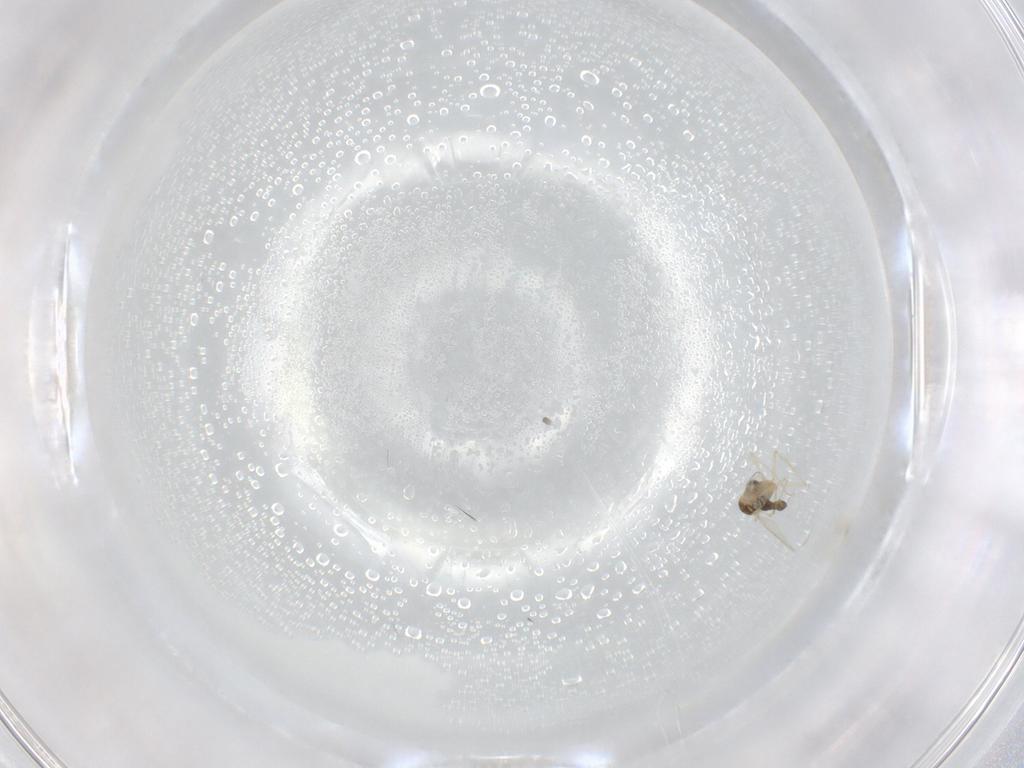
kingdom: Animalia
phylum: Arthropoda
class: Insecta
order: Diptera
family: Chironomidae
